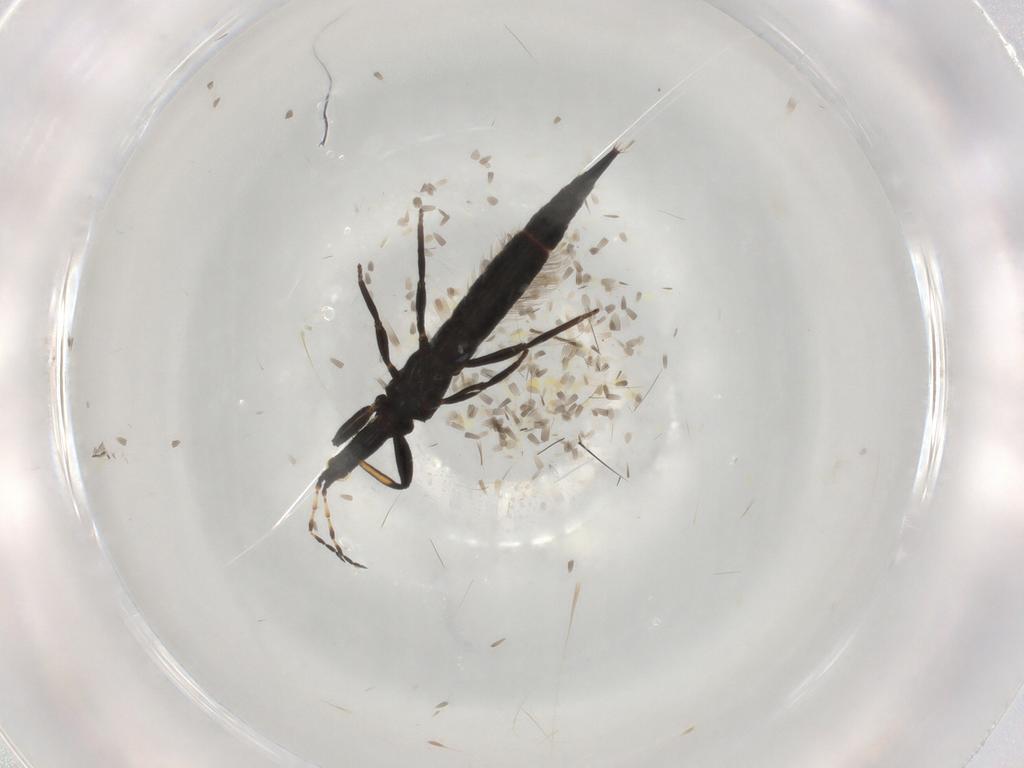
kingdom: Animalia
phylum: Arthropoda
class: Insecta
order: Thysanoptera
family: Phlaeothripidae
